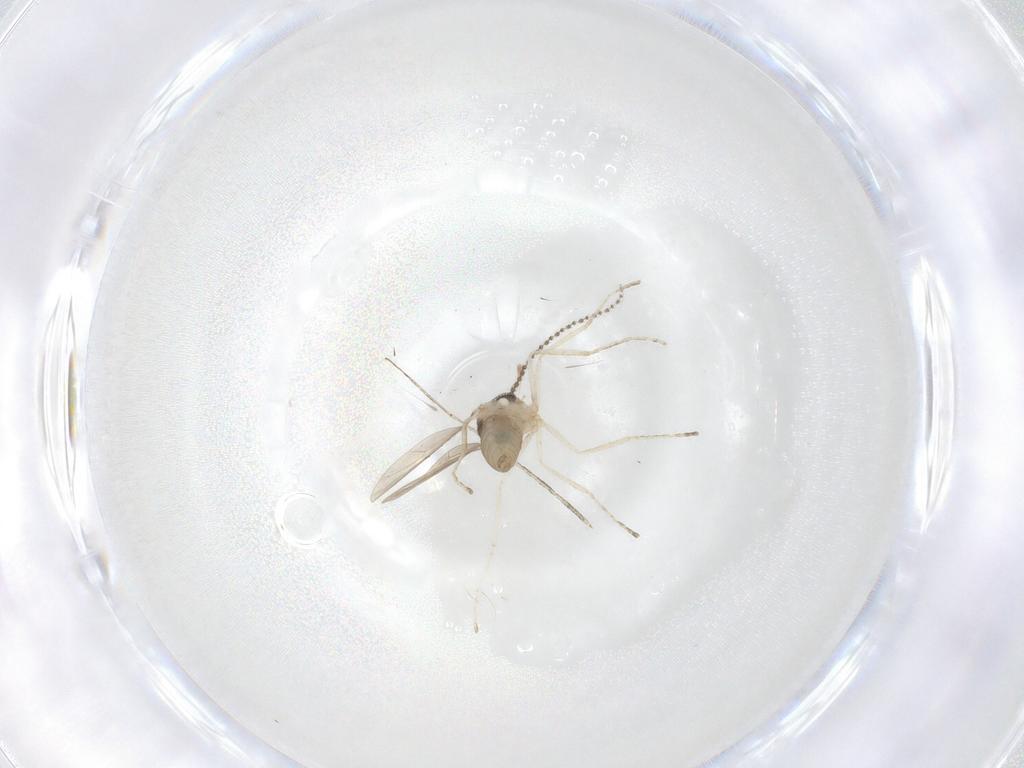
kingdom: Animalia
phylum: Arthropoda
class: Insecta
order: Diptera
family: Cecidomyiidae
